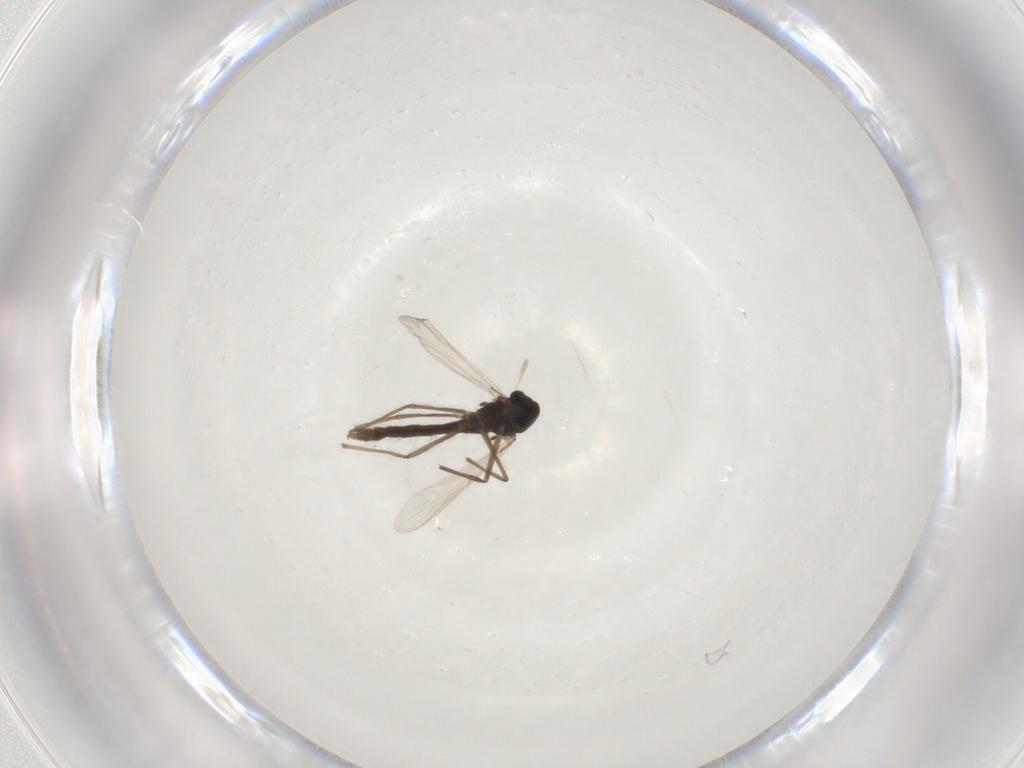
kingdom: Animalia
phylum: Arthropoda
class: Insecta
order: Diptera
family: Chironomidae
